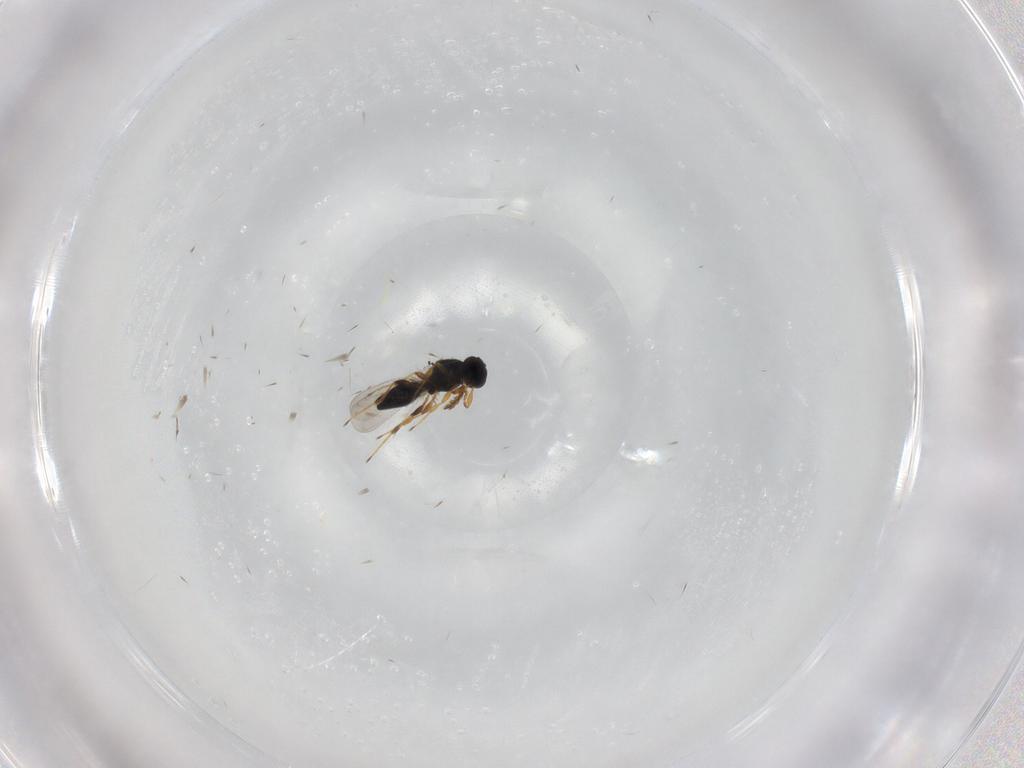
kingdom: Animalia
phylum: Arthropoda
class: Insecta
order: Hymenoptera
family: Platygastridae
